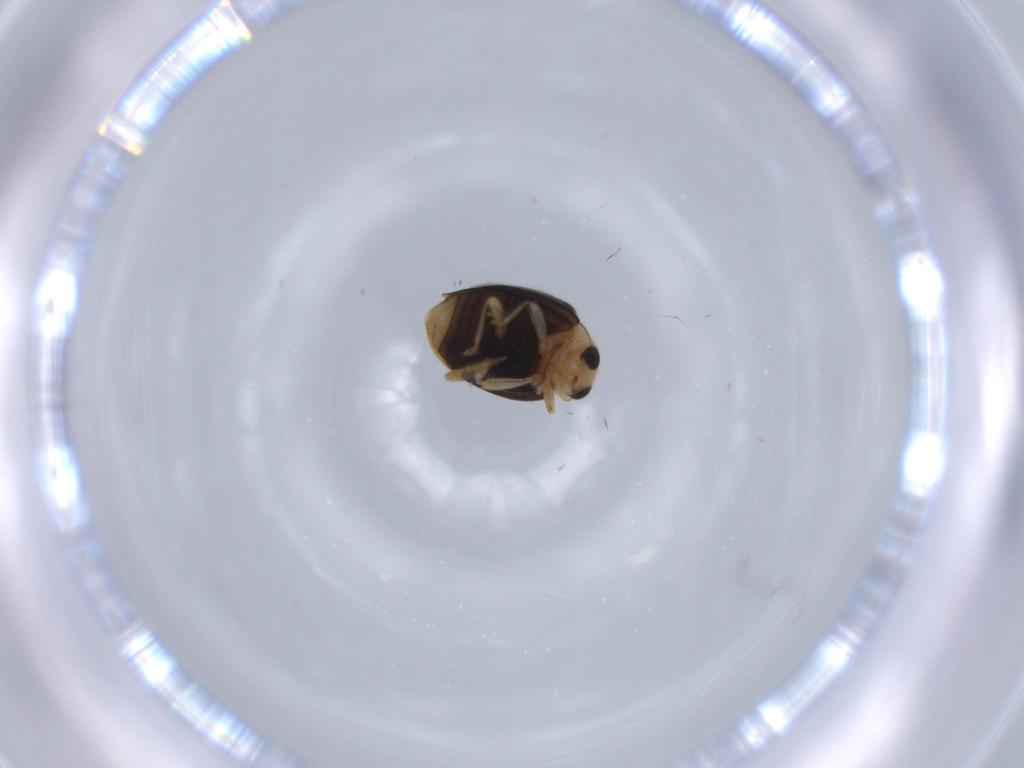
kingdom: Animalia
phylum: Arthropoda
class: Insecta
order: Coleoptera
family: Coccinellidae
